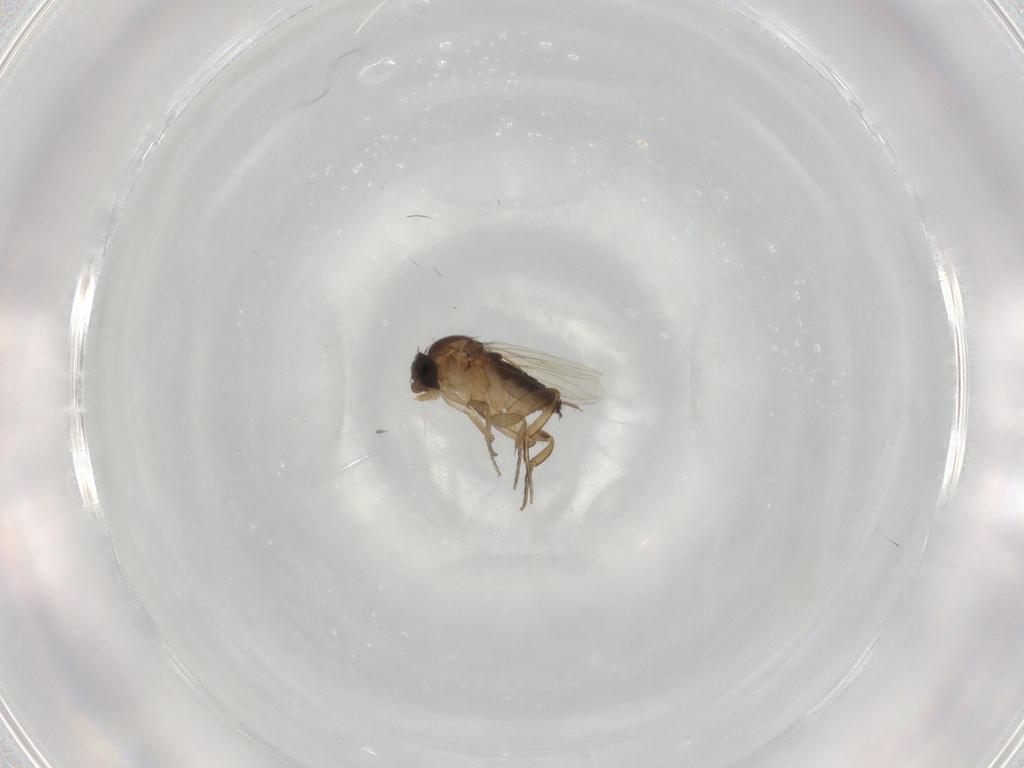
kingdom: Animalia
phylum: Arthropoda
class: Insecta
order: Diptera
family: Phoridae
